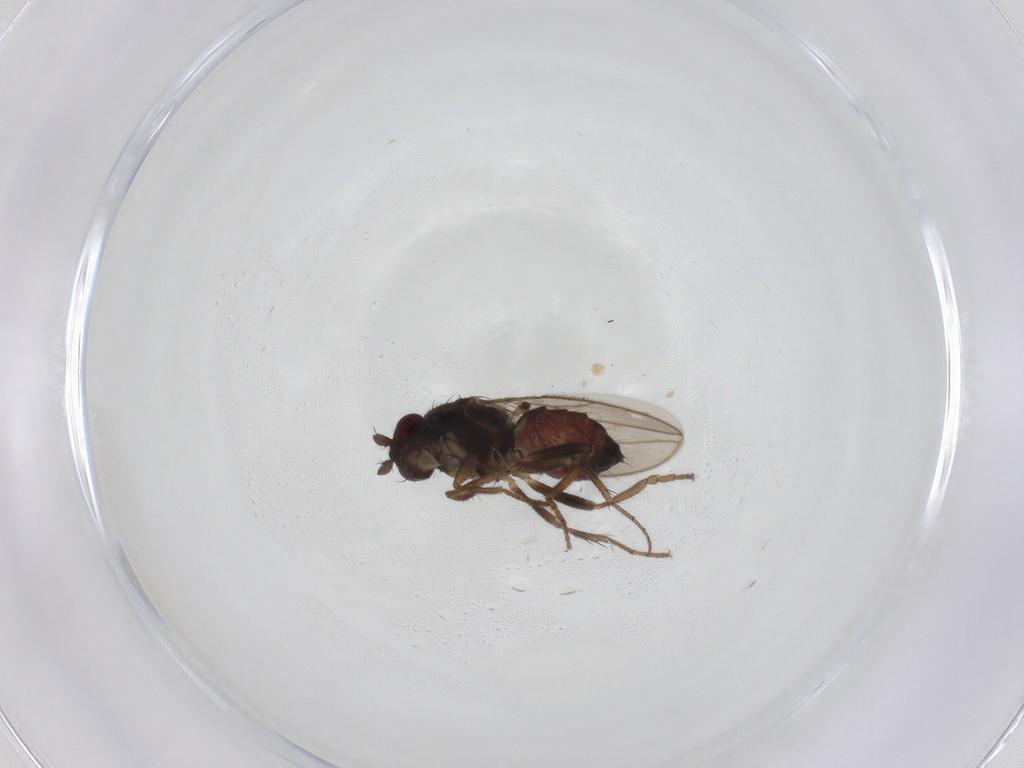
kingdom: Animalia
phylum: Arthropoda
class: Insecta
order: Diptera
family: Sphaeroceridae
